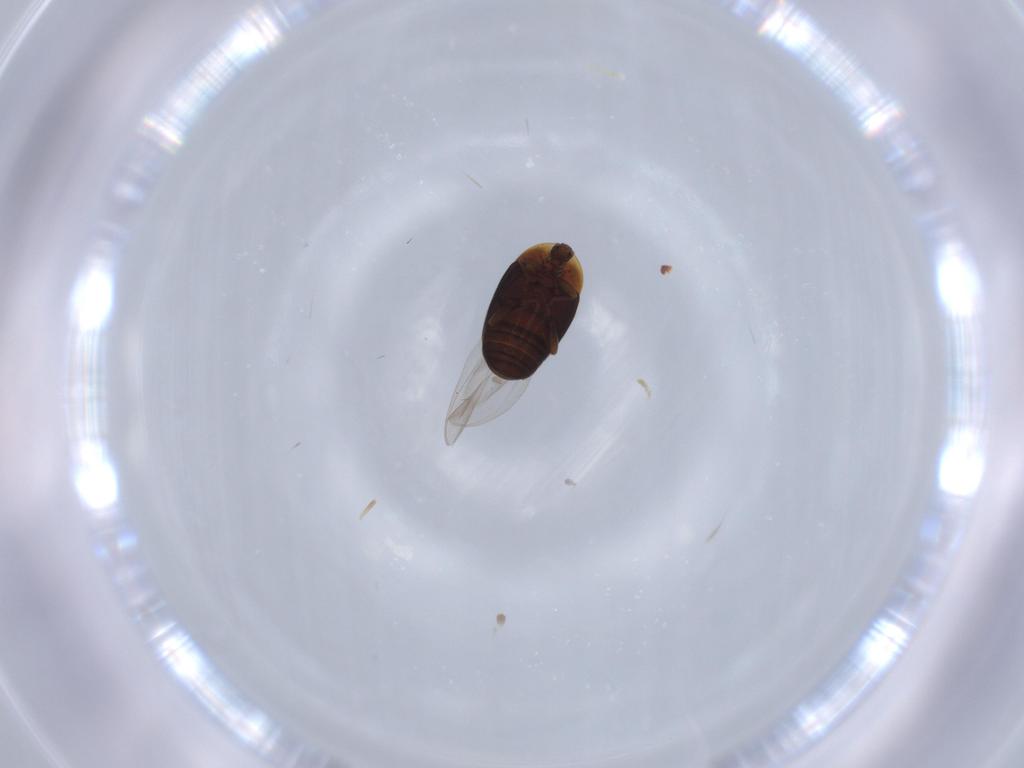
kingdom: Animalia
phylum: Arthropoda
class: Insecta
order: Coleoptera
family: Corylophidae
